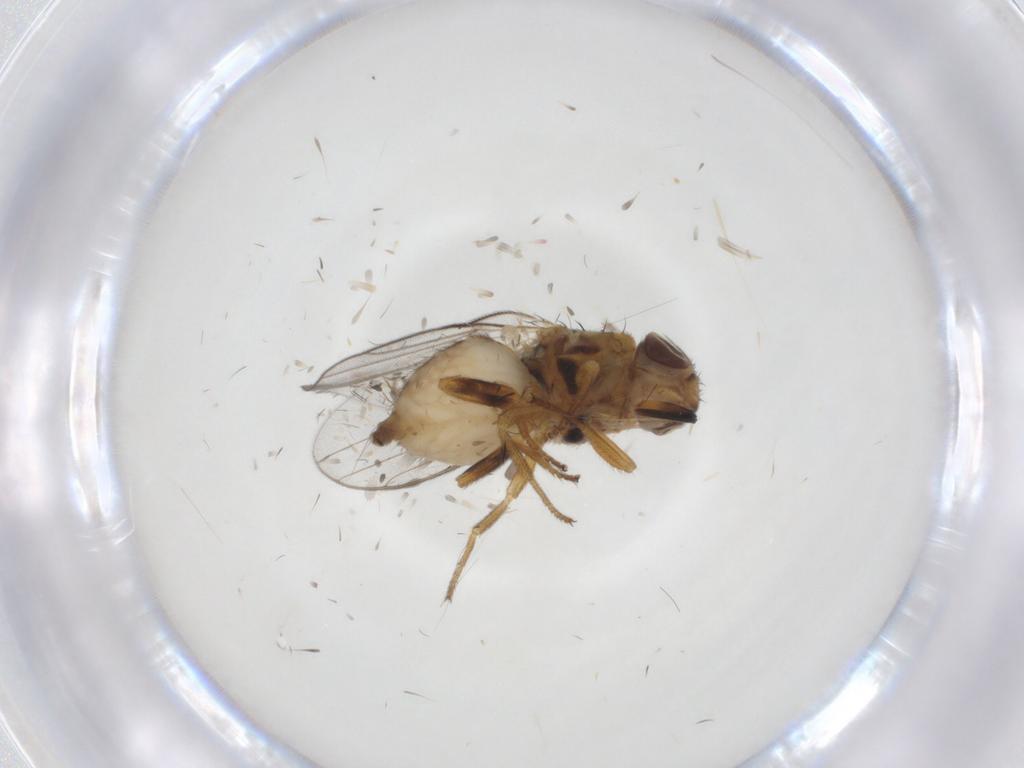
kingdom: Animalia
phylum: Arthropoda
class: Insecta
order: Diptera
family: Chloropidae
